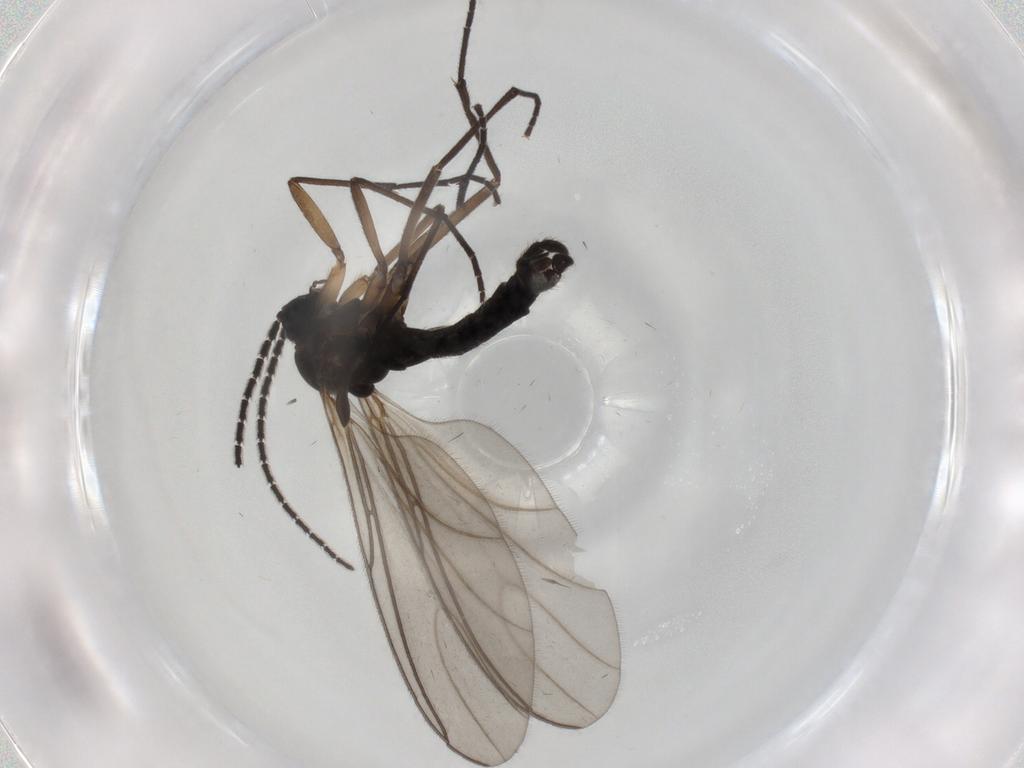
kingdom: Animalia
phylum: Arthropoda
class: Insecta
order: Diptera
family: Sciaridae
